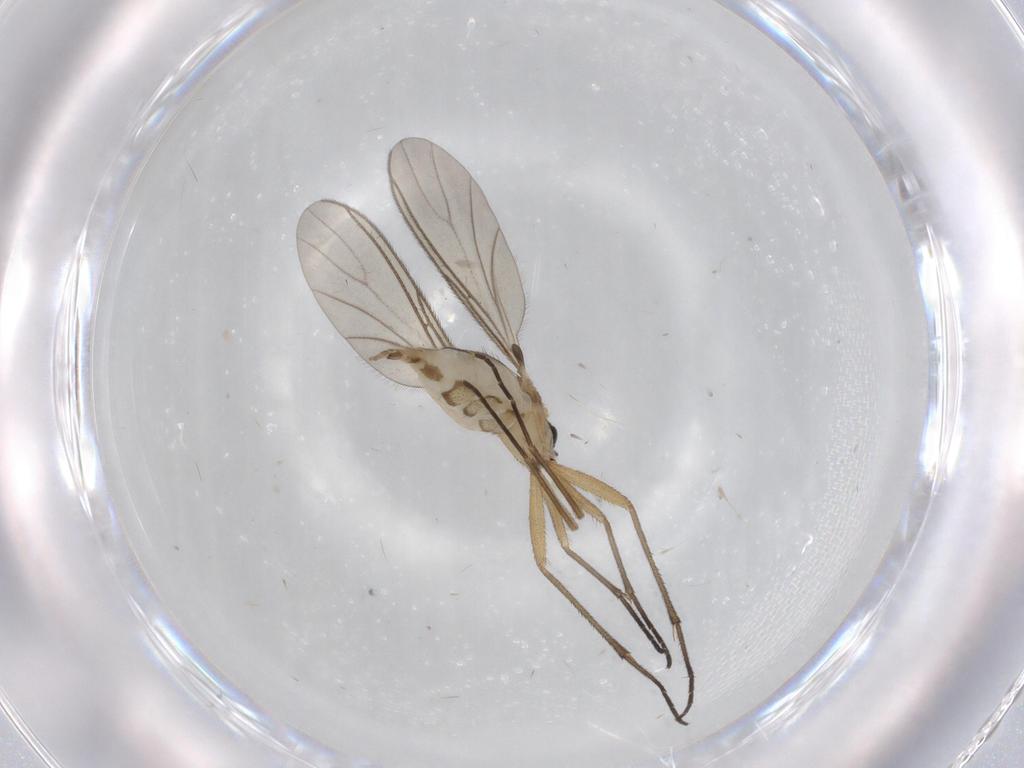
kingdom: Animalia
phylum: Arthropoda
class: Insecta
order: Diptera
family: Sciaridae
